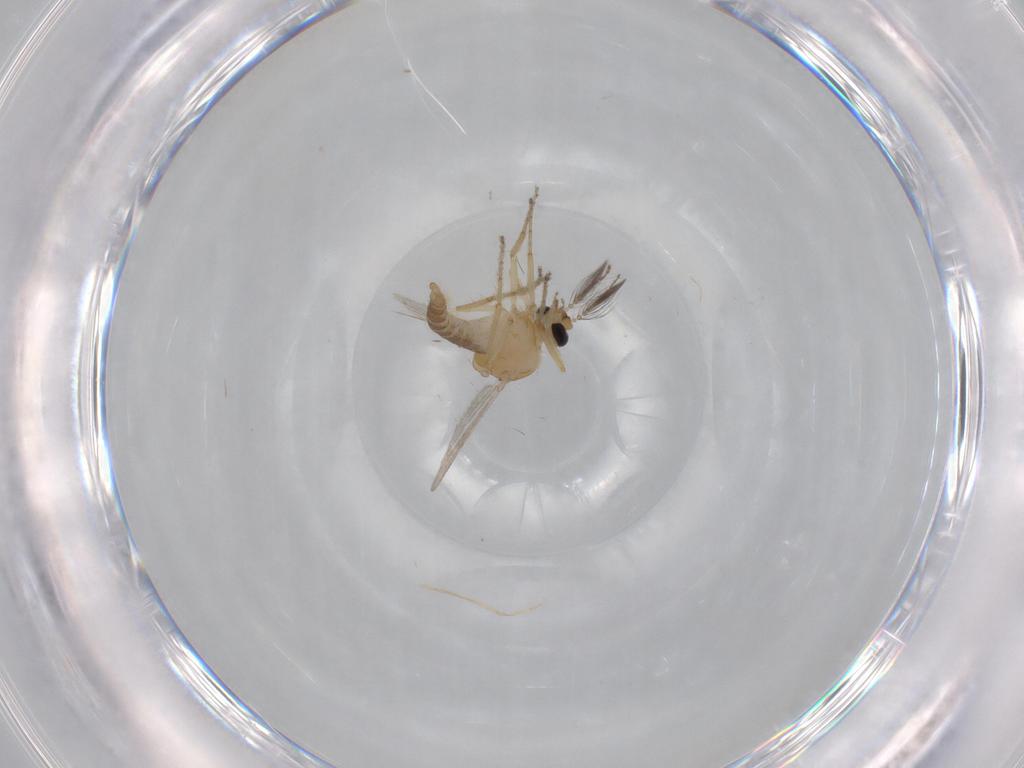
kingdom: Animalia
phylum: Arthropoda
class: Insecta
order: Diptera
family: Ceratopogonidae
